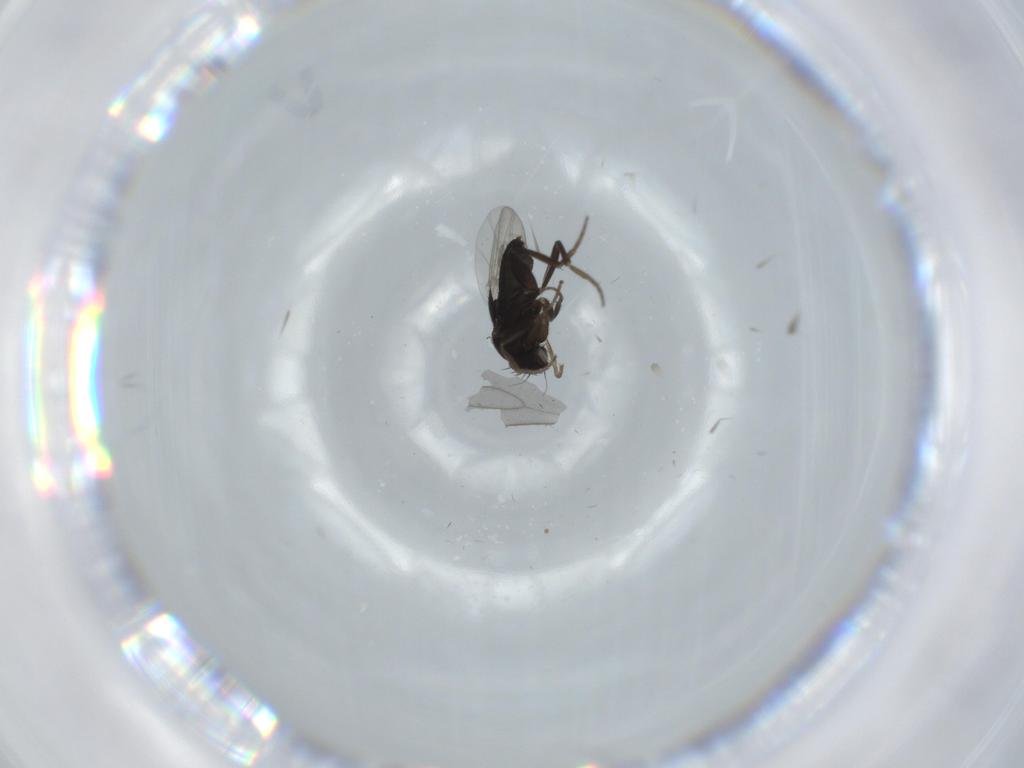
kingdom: Animalia
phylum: Arthropoda
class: Insecta
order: Diptera
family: Phoridae
